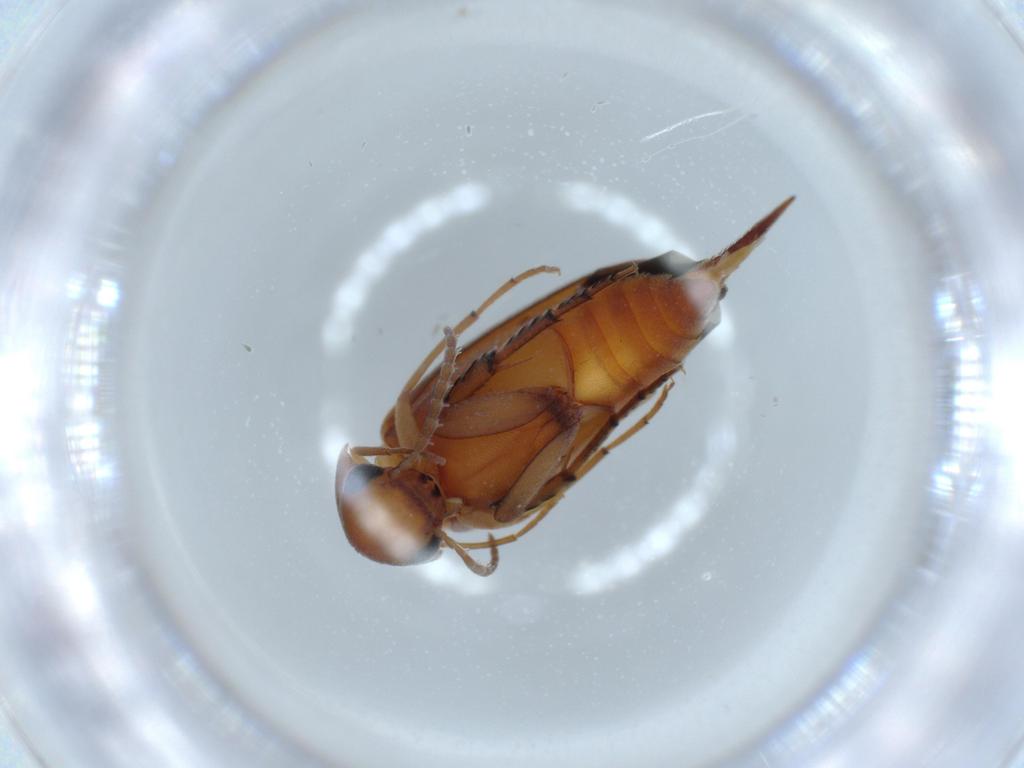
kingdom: Animalia
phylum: Arthropoda
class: Insecta
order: Coleoptera
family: Mordellidae
